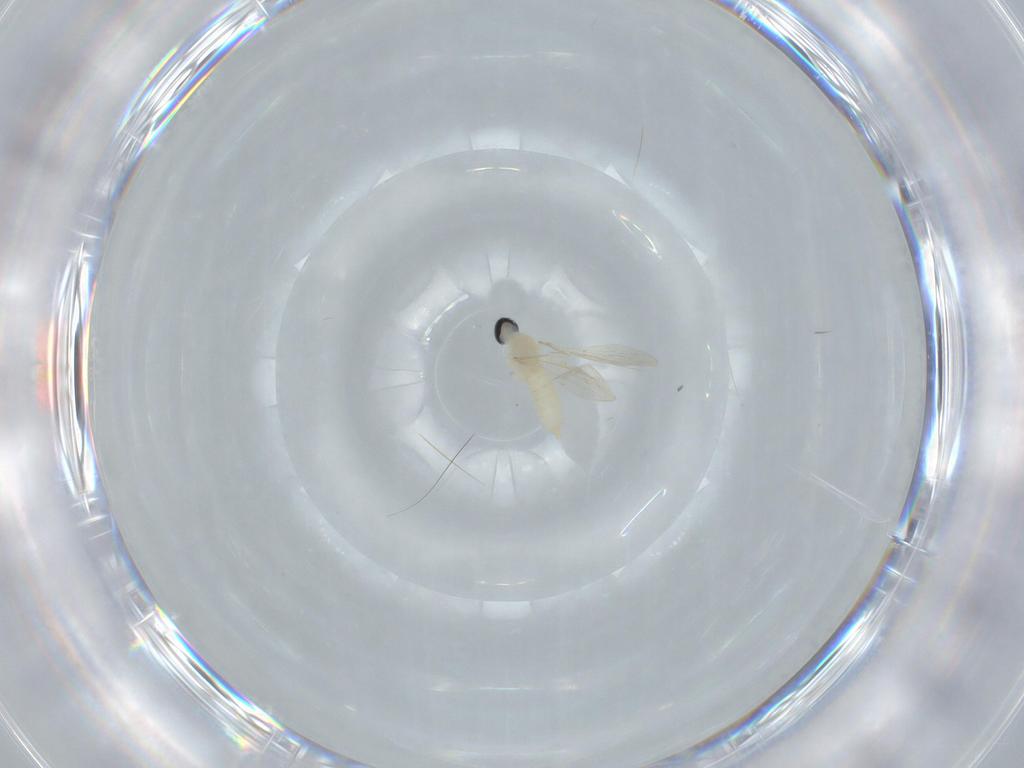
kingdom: Animalia
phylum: Arthropoda
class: Insecta
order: Diptera
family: Cecidomyiidae
